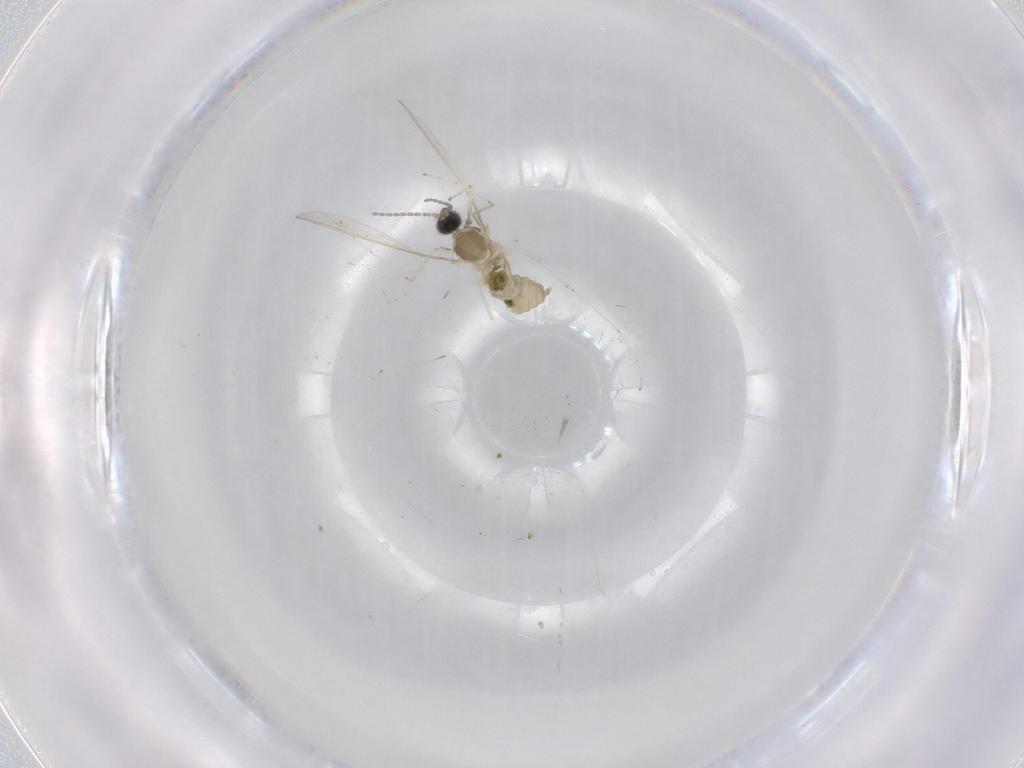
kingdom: Animalia
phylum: Arthropoda
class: Insecta
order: Diptera
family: Cecidomyiidae
